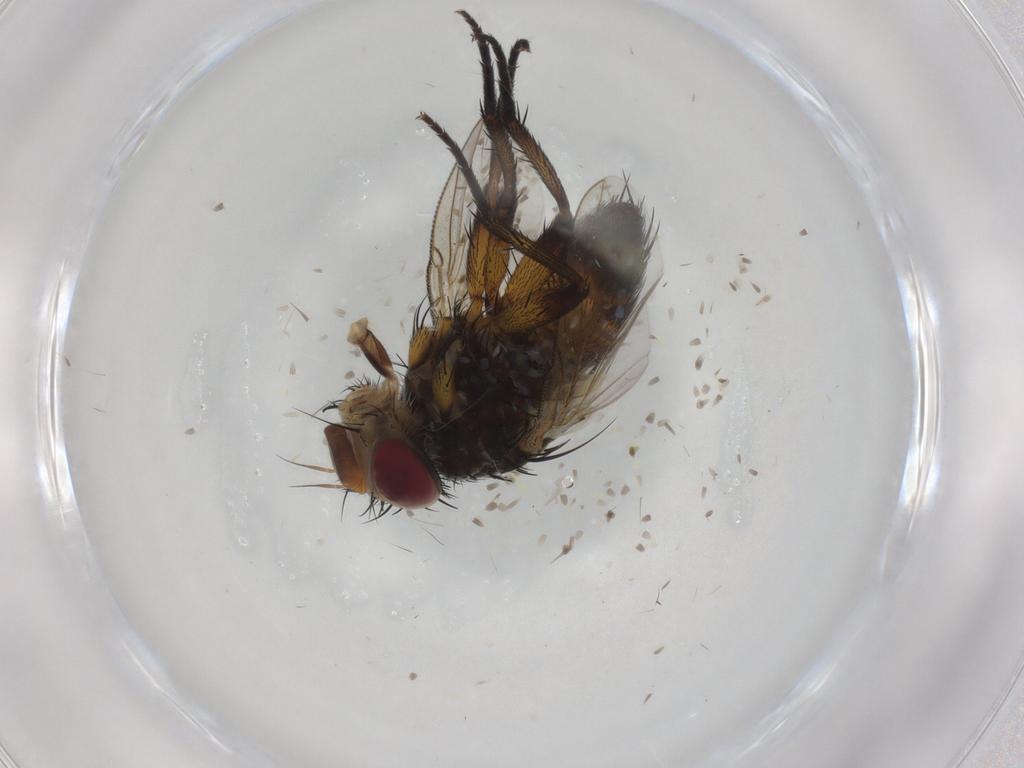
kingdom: Animalia
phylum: Arthropoda
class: Insecta
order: Diptera
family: Tachinidae
